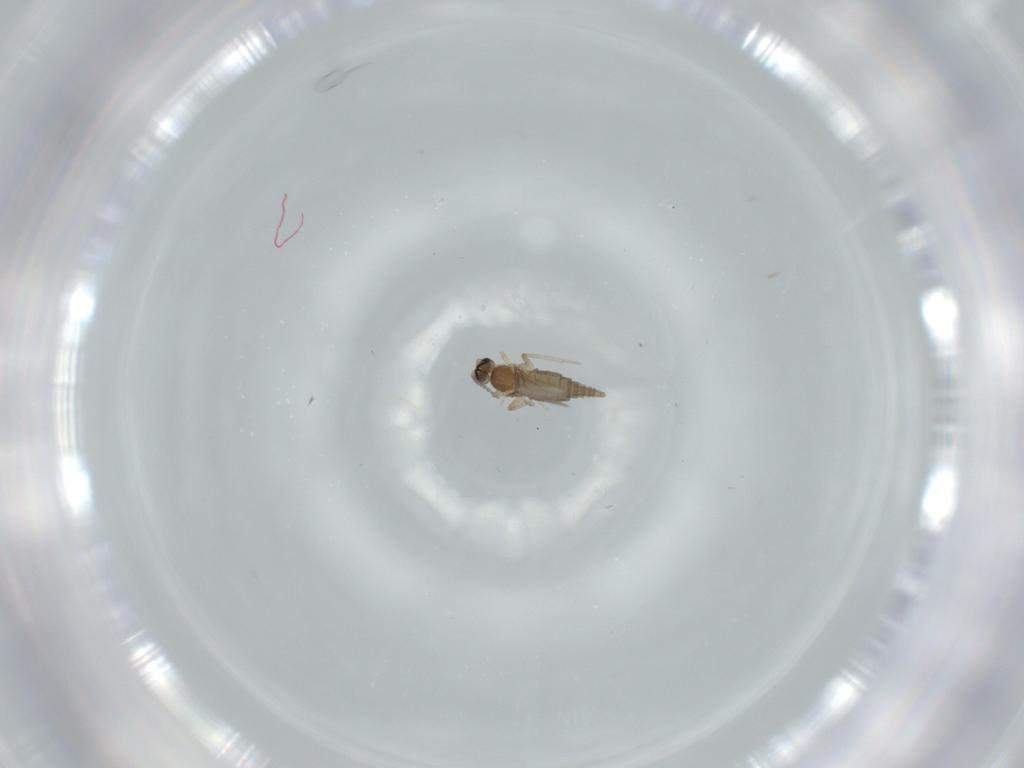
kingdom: Animalia
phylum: Arthropoda
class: Insecta
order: Diptera
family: Cecidomyiidae
